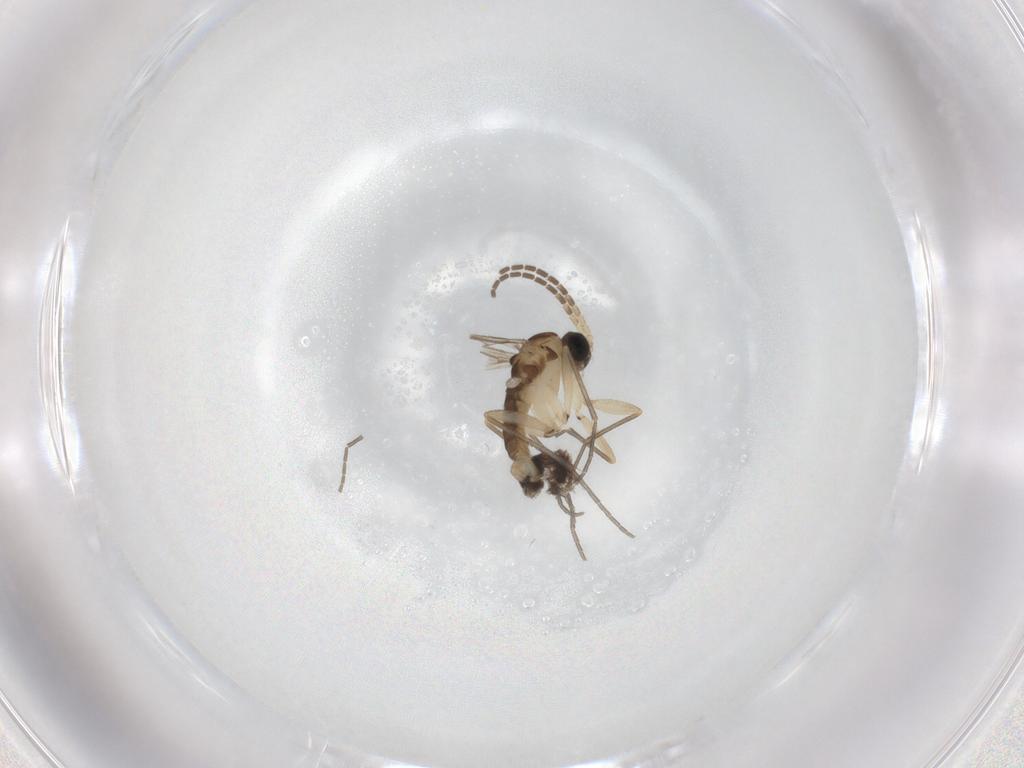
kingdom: Animalia
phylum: Arthropoda
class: Insecta
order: Diptera
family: Cecidomyiidae
